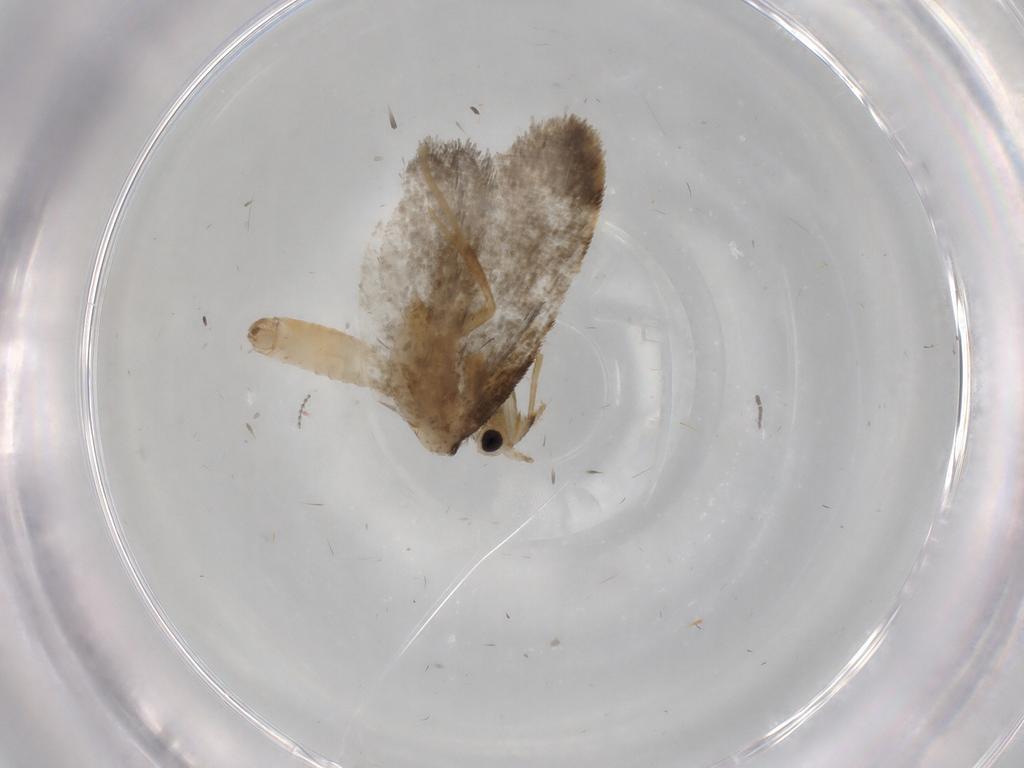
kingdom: Animalia
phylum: Arthropoda
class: Insecta
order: Lepidoptera
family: Psychidae
